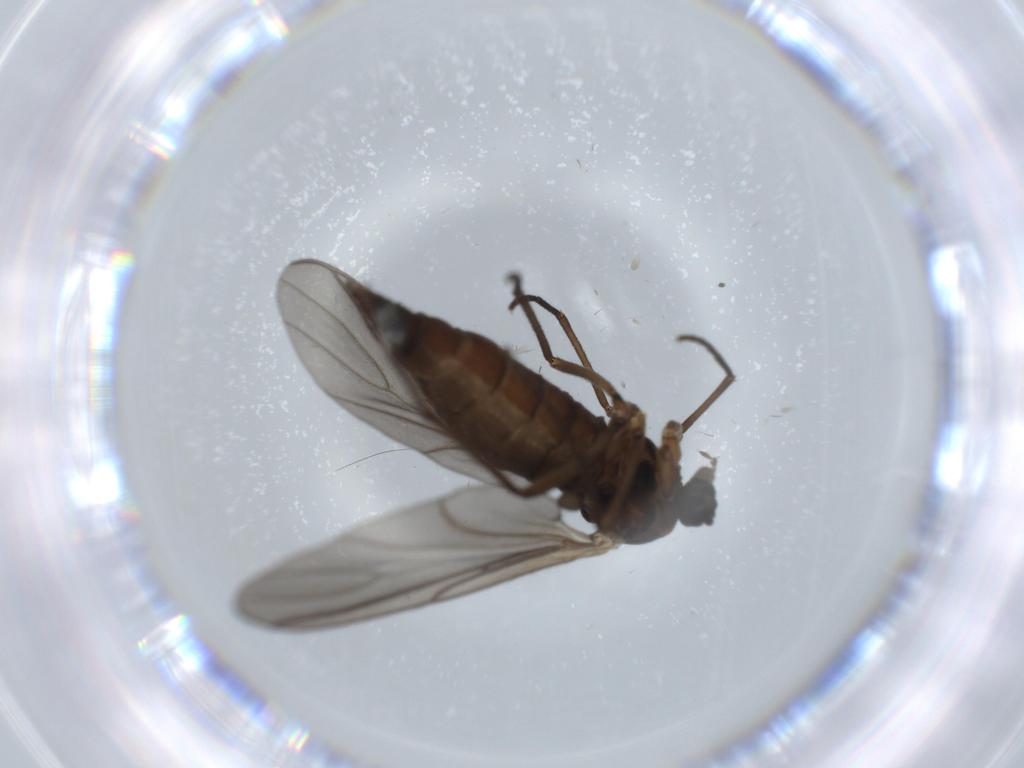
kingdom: Animalia
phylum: Arthropoda
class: Insecta
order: Diptera
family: Sciaridae
